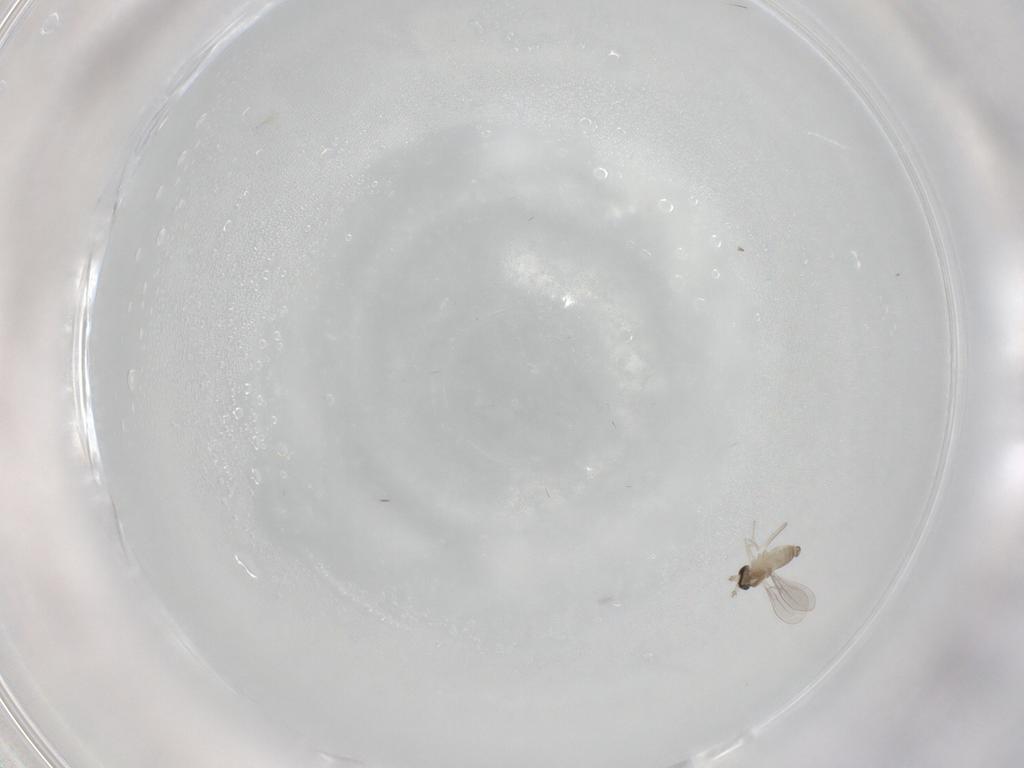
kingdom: Animalia
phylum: Arthropoda
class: Insecta
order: Diptera
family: Cecidomyiidae
